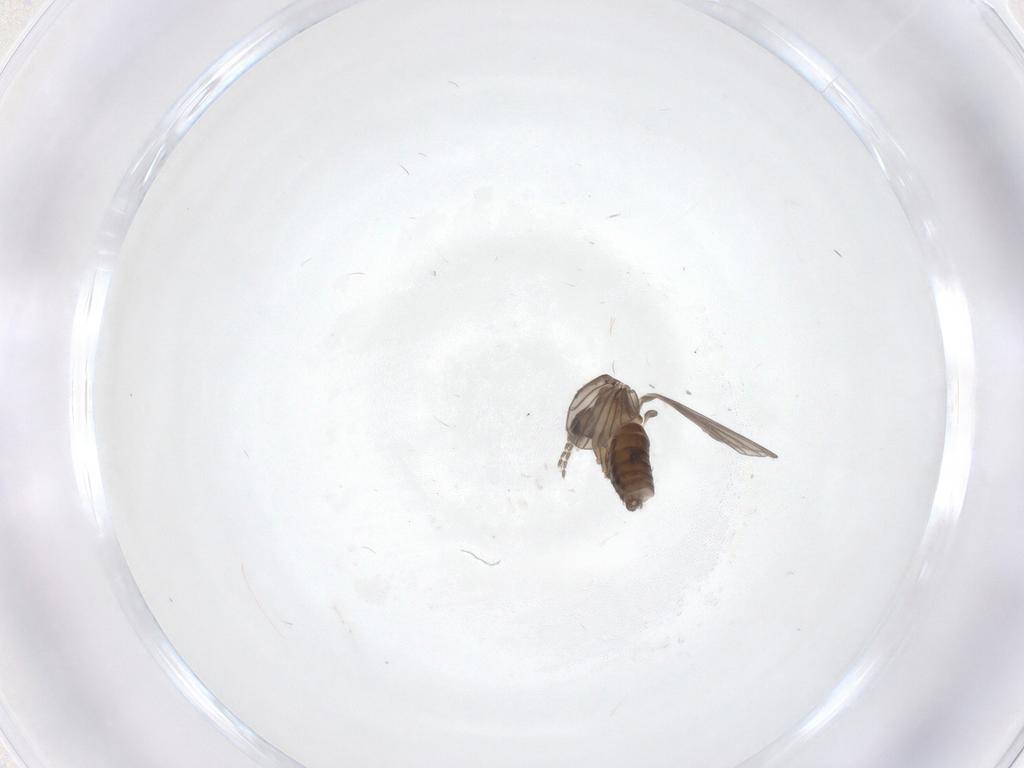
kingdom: Animalia
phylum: Arthropoda
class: Insecta
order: Diptera
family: Psychodidae
